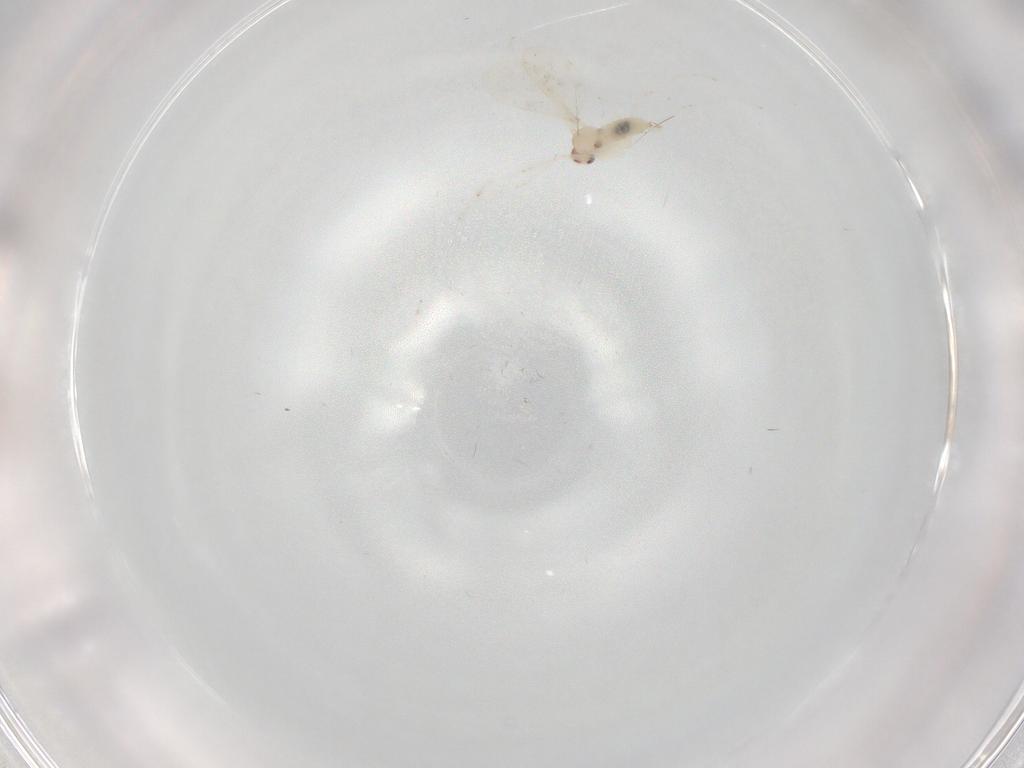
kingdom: Animalia
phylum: Arthropoda
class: Insecta
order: Diptera
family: Cecidomyiidae
